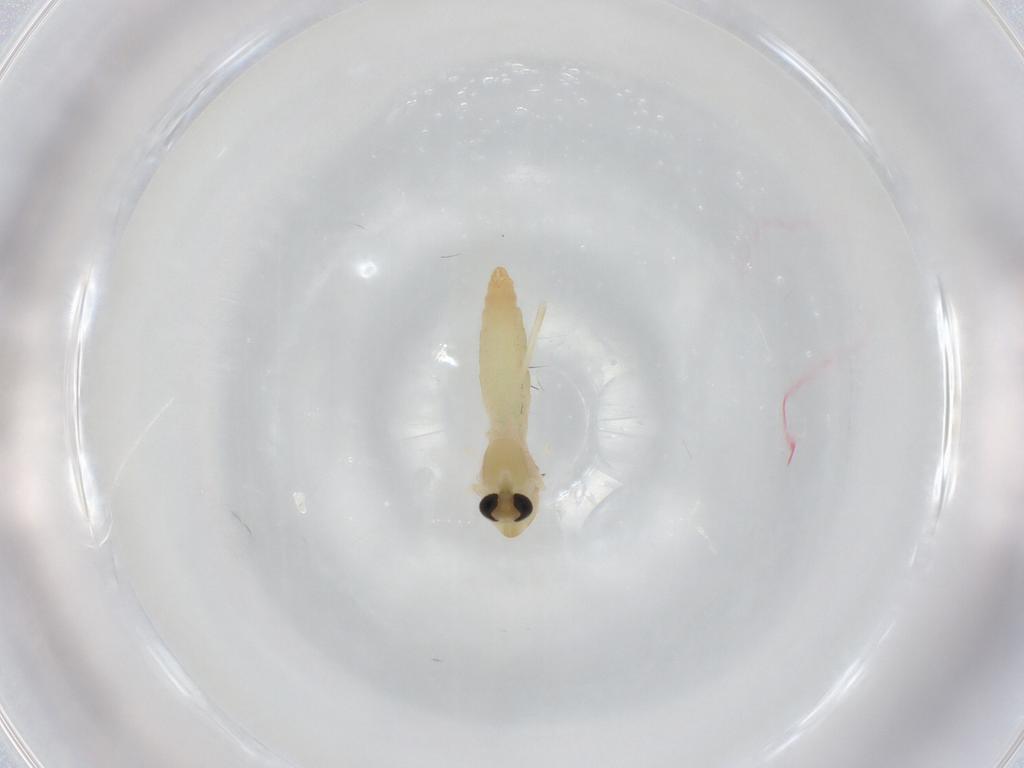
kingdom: Animalia
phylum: Arthropoda
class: Insecta
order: Diptera
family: Chironomidae
